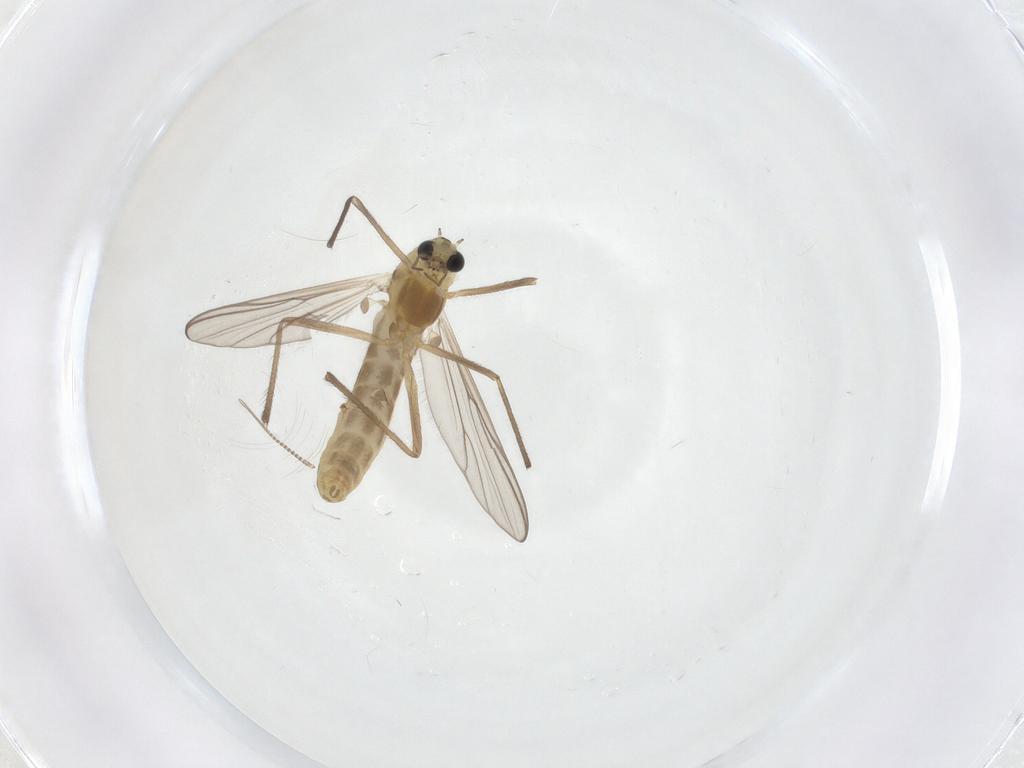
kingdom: Animalia
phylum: Arthropoda
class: Insecta
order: Diptera
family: Chironomidae
